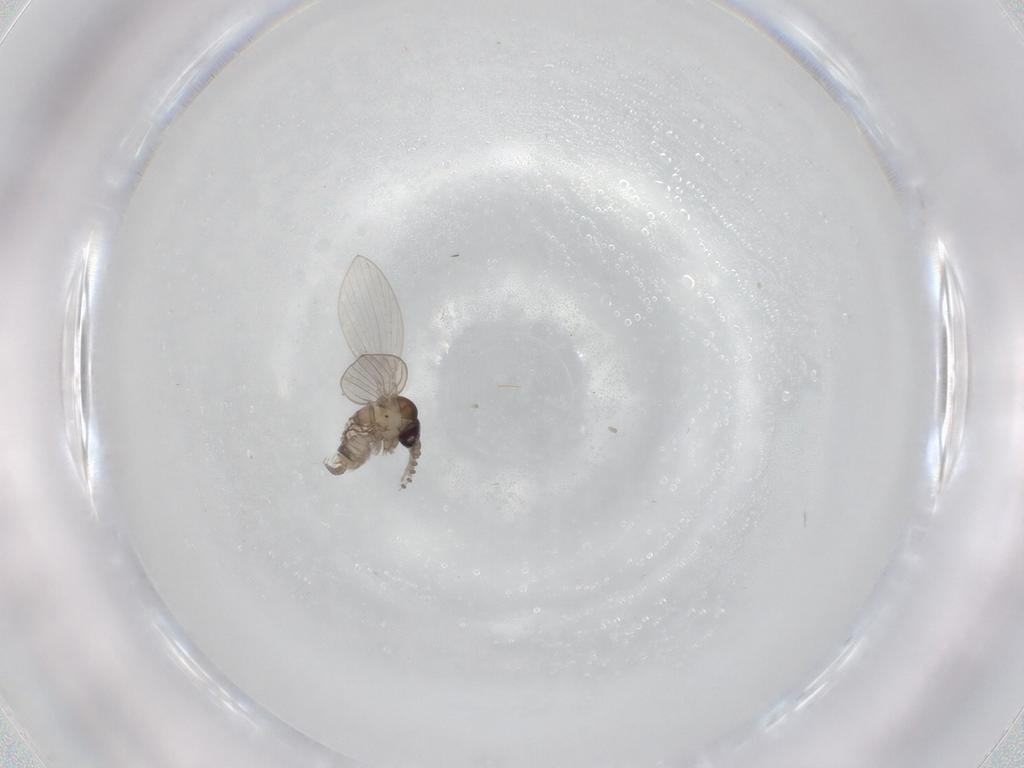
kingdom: Animalia
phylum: Arthropoda
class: Insecta
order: Diptera
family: Psychodidae
